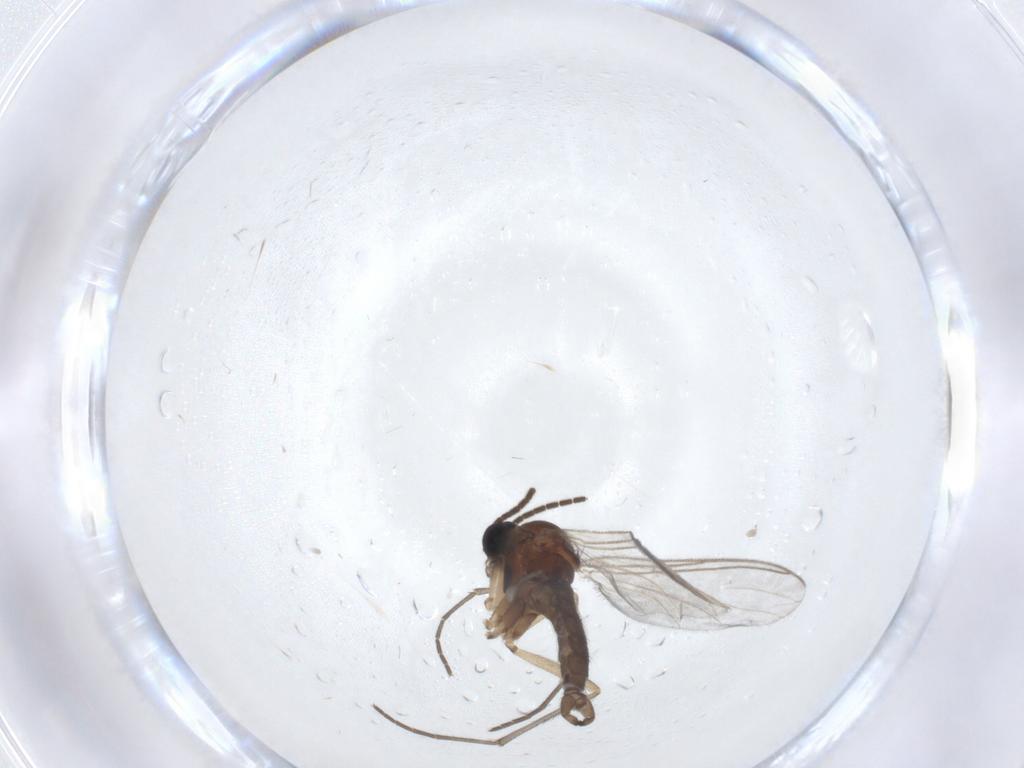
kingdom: Animalia
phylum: Arthropoda
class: Insecta
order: Diptera
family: Sciaridae
